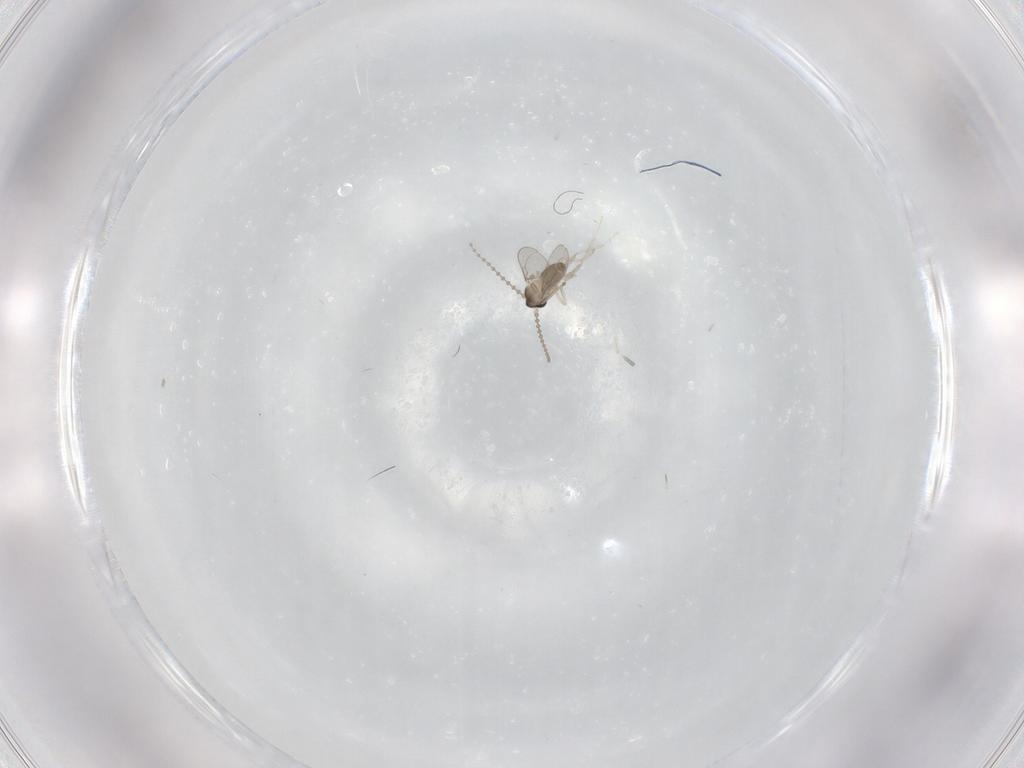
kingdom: Animalia
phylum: Arthropoda
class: Insecta
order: Diptera
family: Cecidomyiidae
